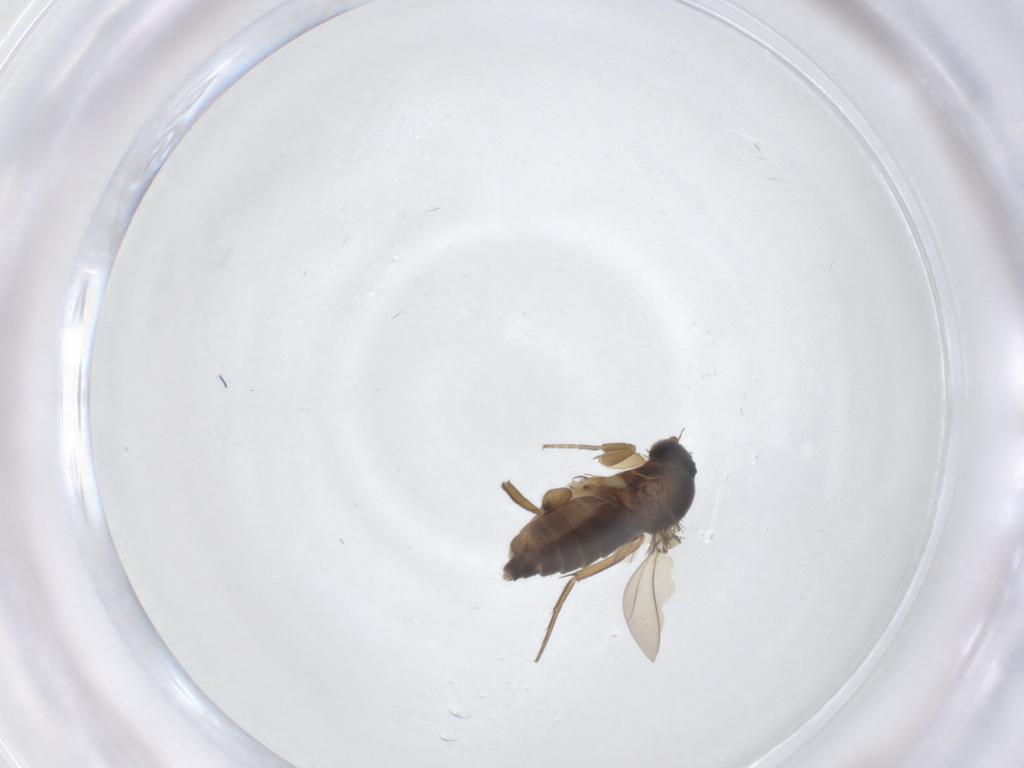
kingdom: Animalia
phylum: Arthropoda
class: Insecta
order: Diptera
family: Phoridae
